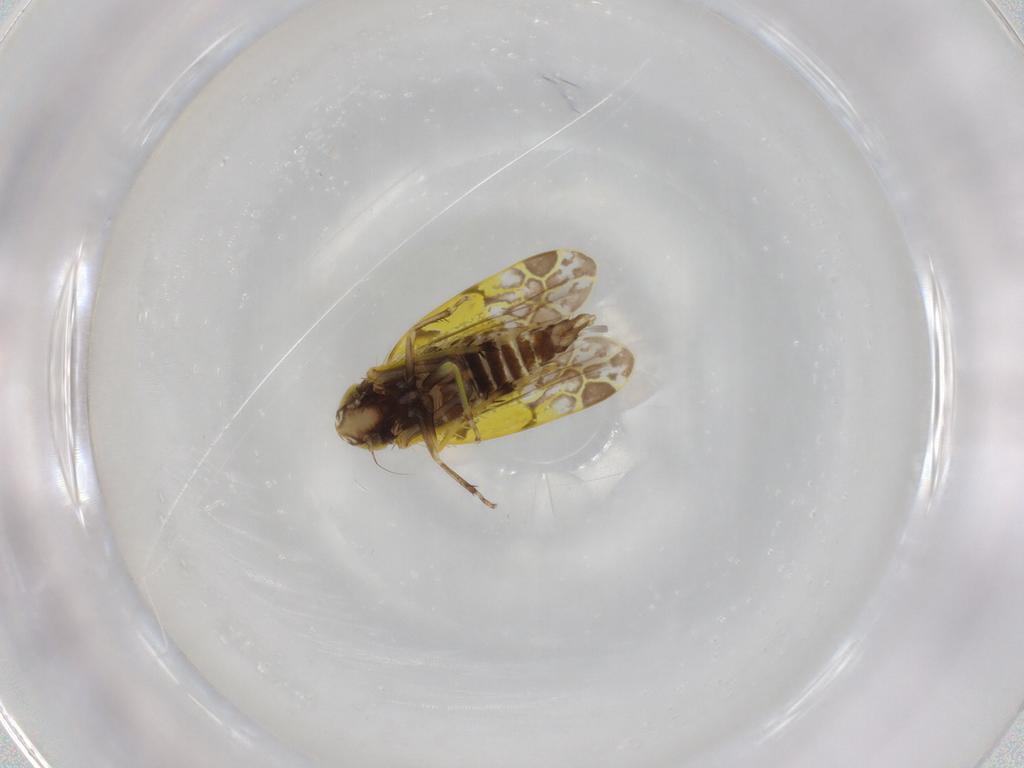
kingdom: Animalia
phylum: Arthropoda
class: Insecta
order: Hemiptera
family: Cicadellidae
